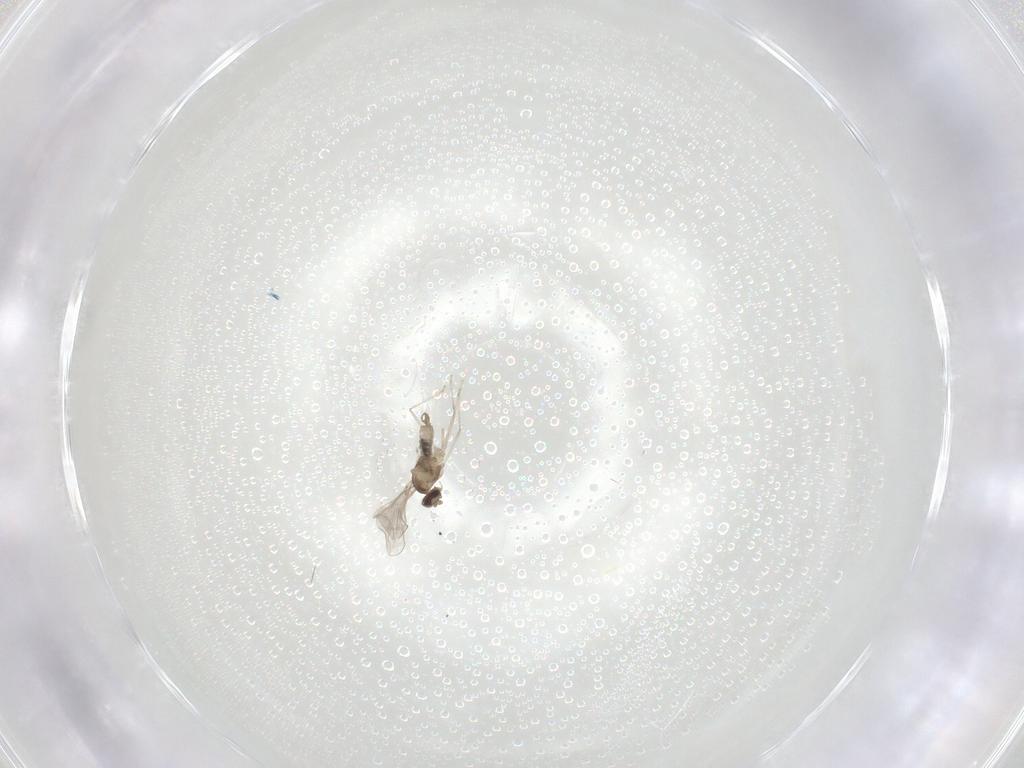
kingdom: Animalia
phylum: Arthropoda
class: Insecta
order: Diptera
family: Cecidomyiidae
